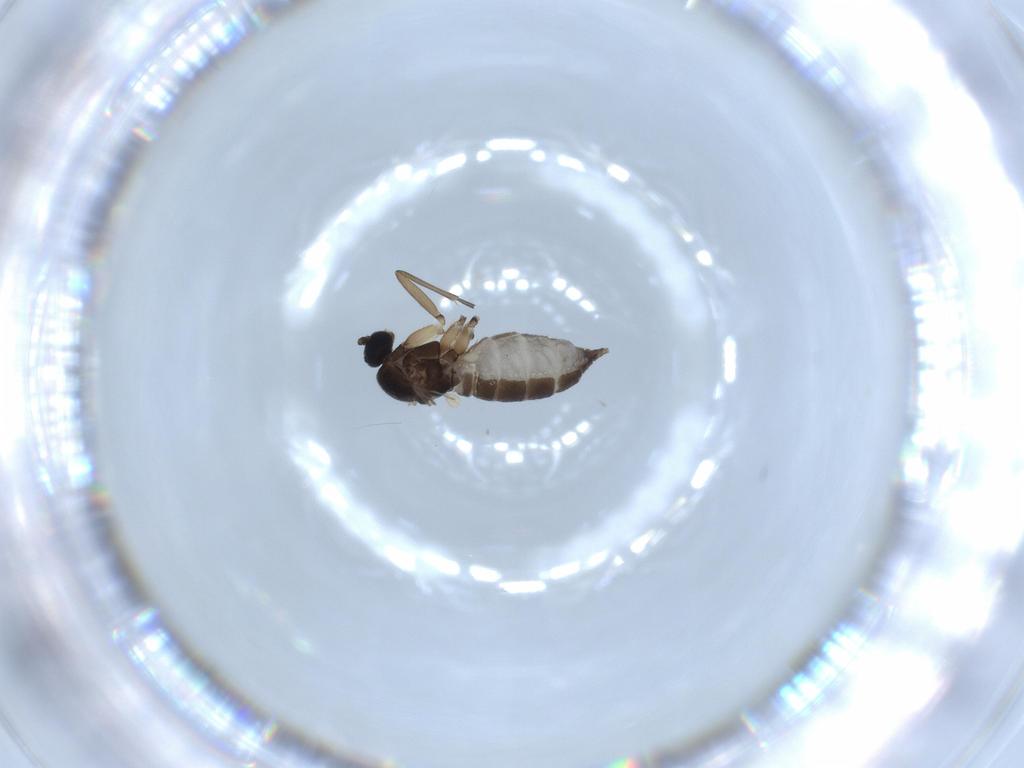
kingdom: Animalia
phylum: Arthropoda
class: Insecta
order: Diptera
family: Sciaridae
